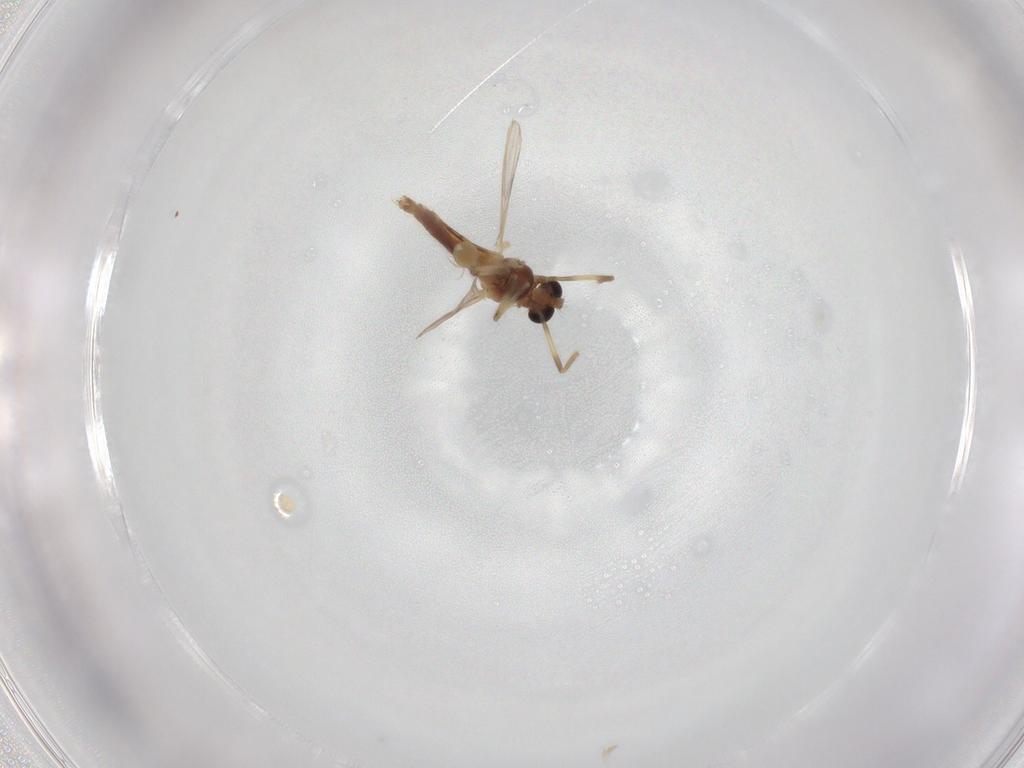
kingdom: Animalia
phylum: Arthropoda
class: Insecta
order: Diptera
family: Chironomidae
